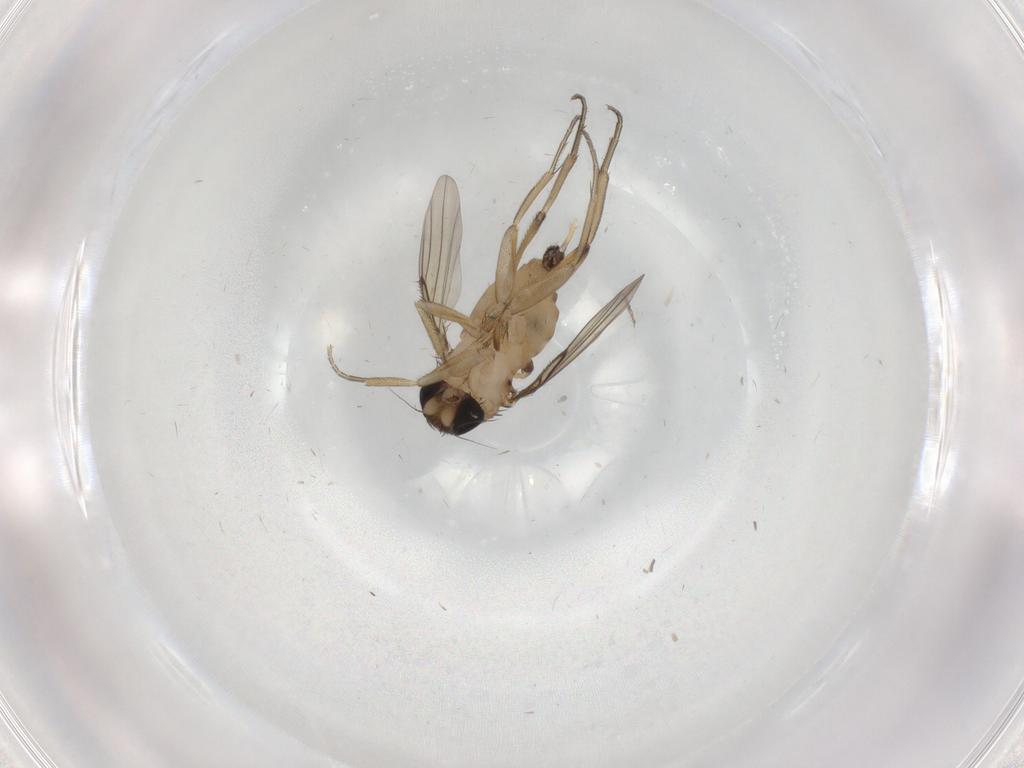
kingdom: Animalia
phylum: Arthropoda
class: Insecta
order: Diptera
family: Cecidomyiidae
